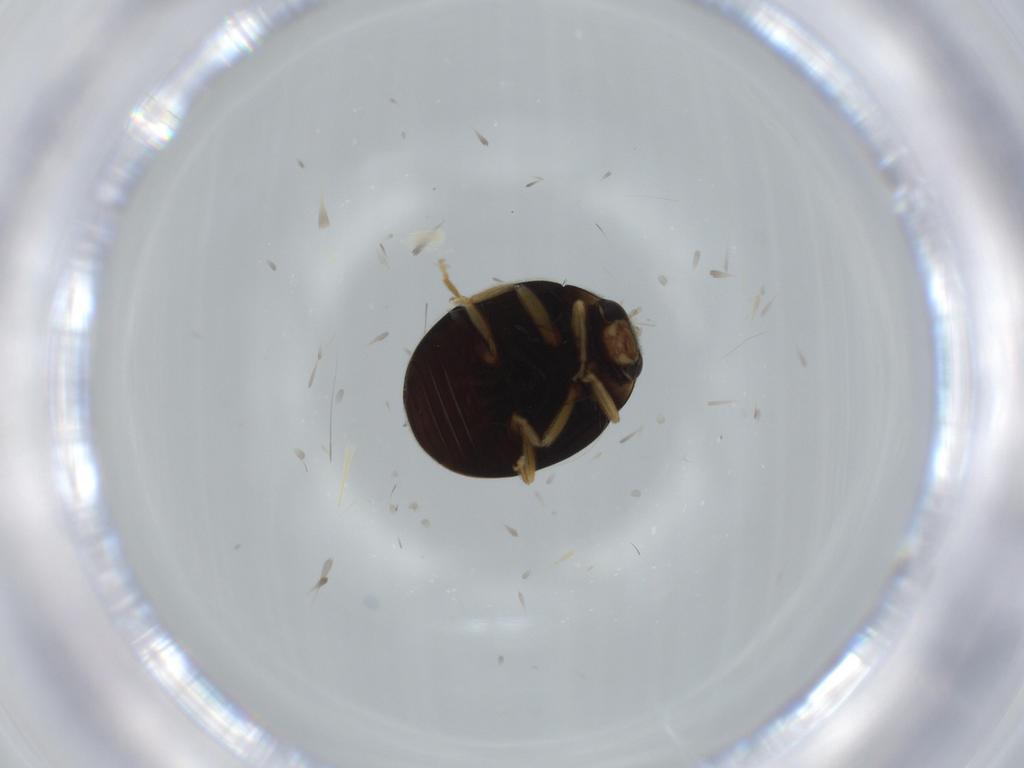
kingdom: Animalia
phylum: Arthropoda
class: Insecta
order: Coleoptera
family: Coccinellidae
